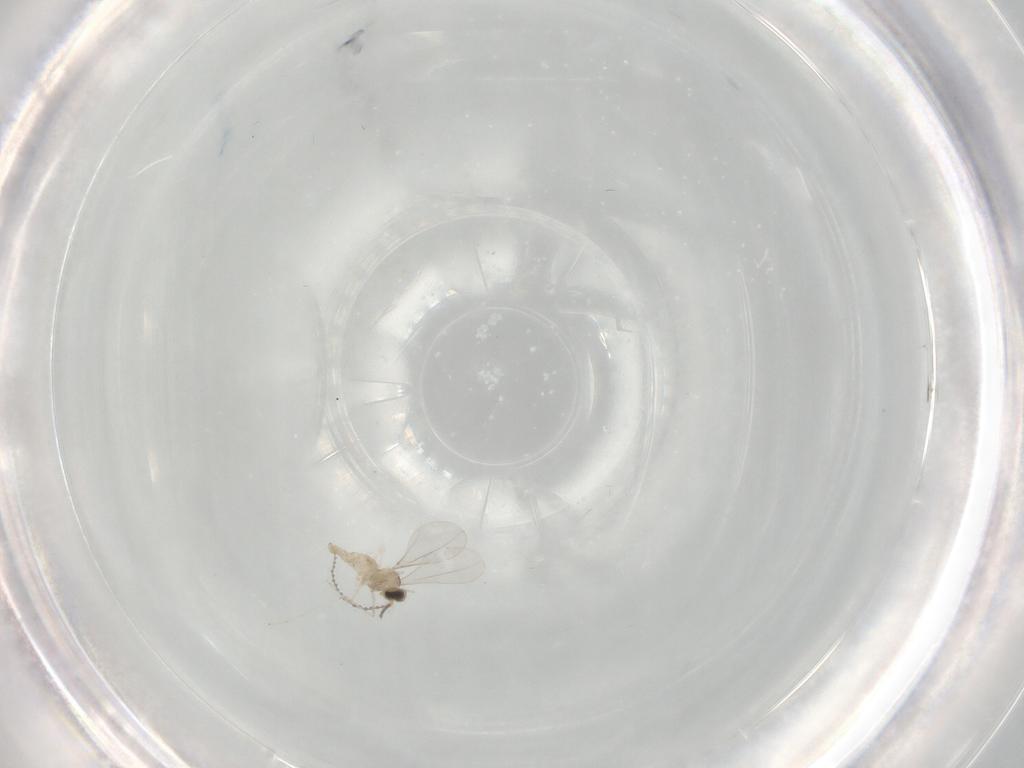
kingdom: Animalia
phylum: Arthropoda
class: Insecta
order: Diptera
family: Cecidomyiidae
